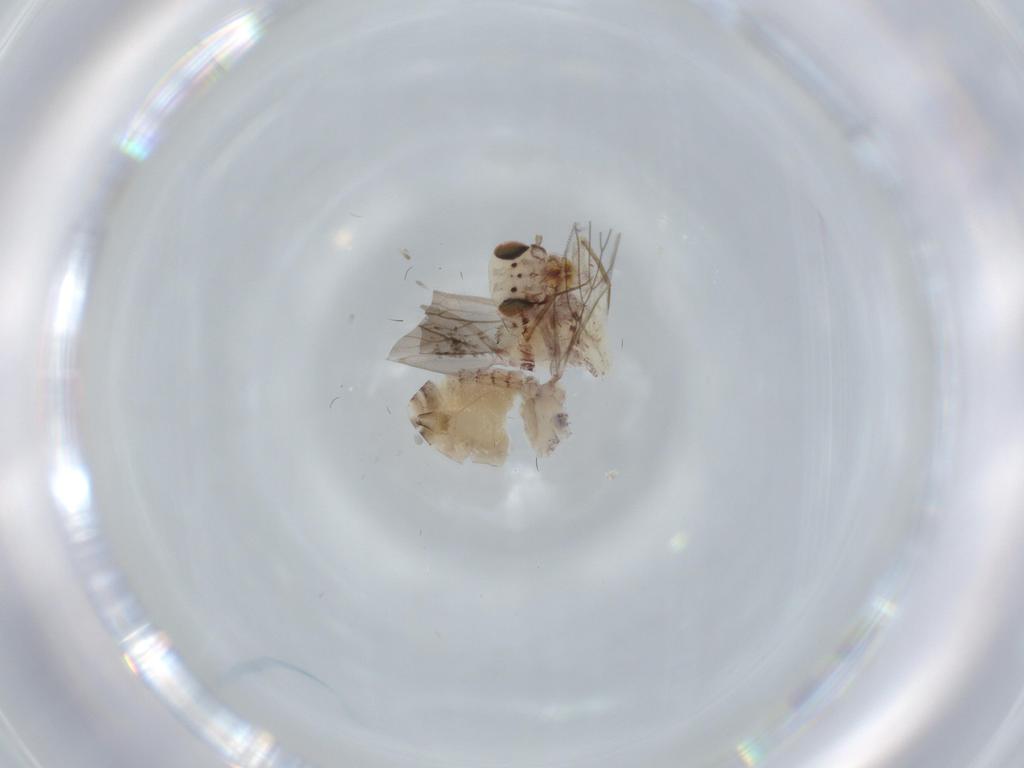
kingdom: Animalia
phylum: Arthropoda
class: Insecta
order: Psocodea
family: Lepidopsocidae
